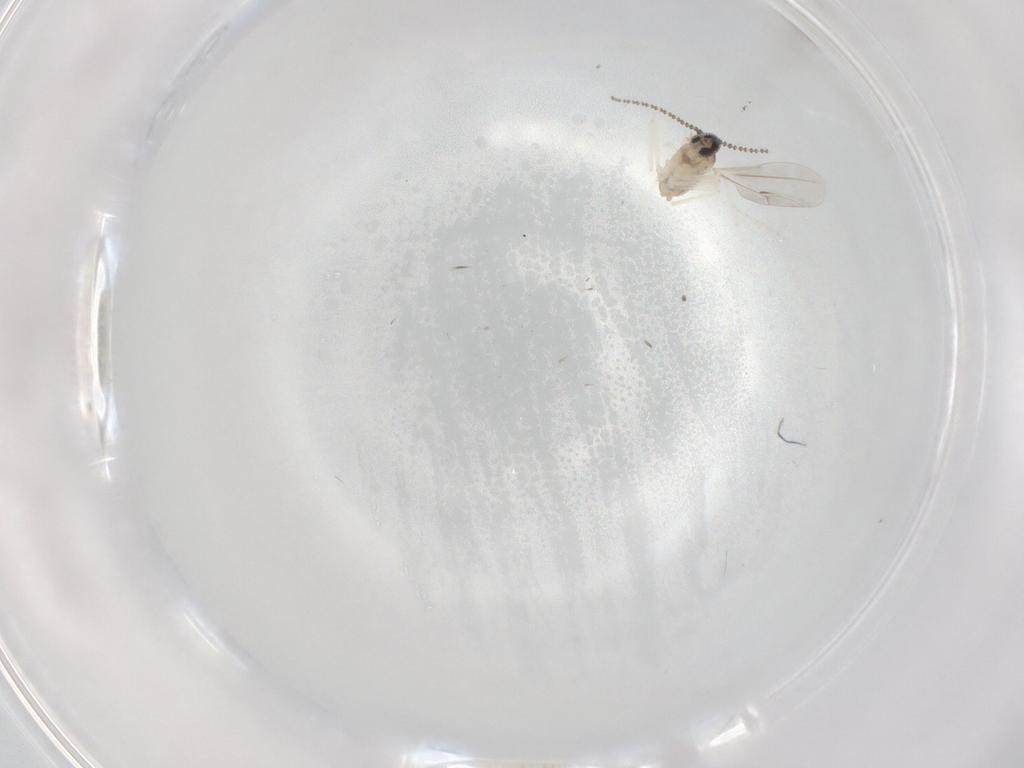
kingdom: Animalia
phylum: Arthropoda
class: Insecta
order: Diptera
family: Cecidomyiidae
